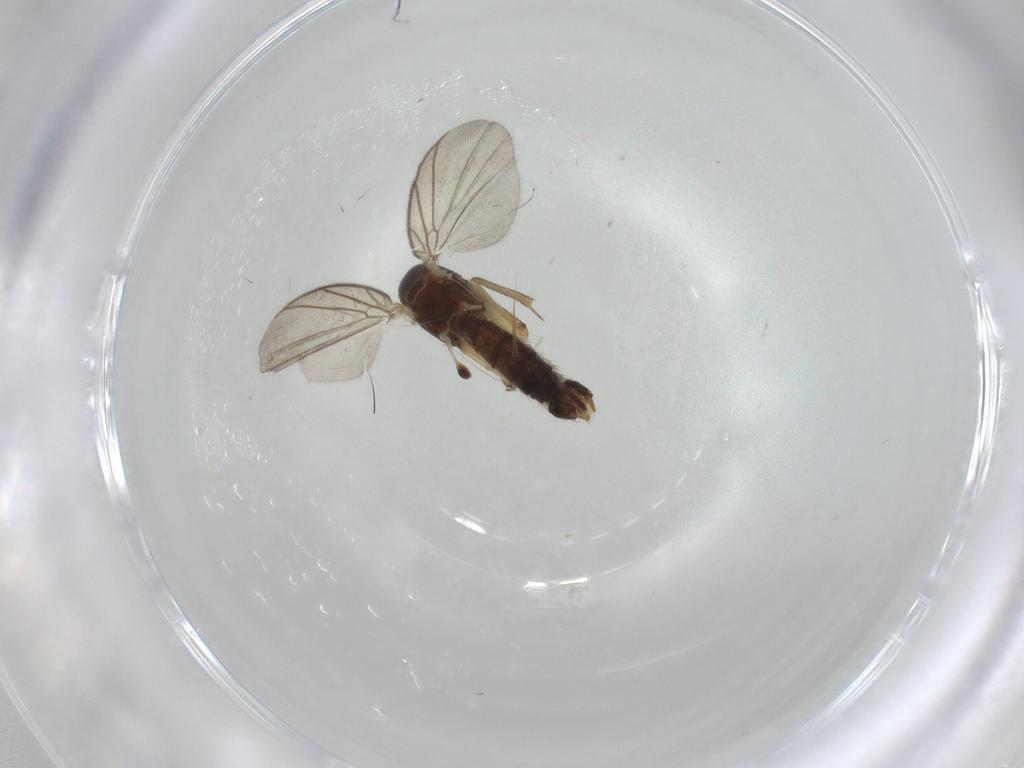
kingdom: Animalia
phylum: Arthropoda
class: Insecta
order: Diptera
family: Mycetophilidae
